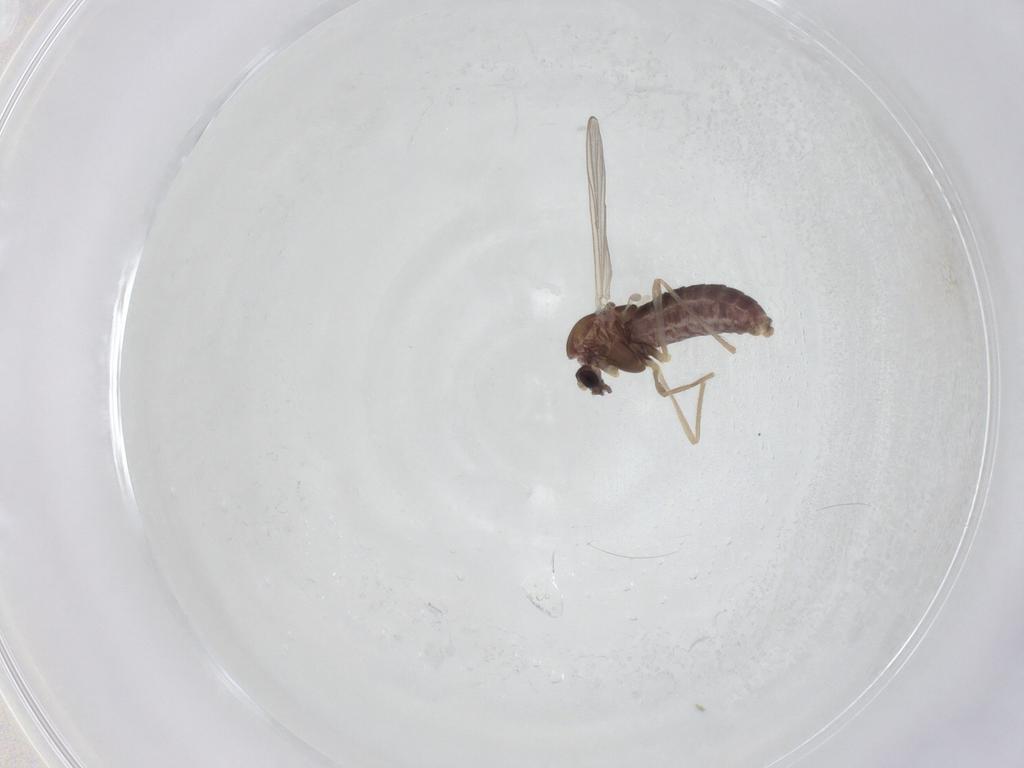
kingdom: Animalia
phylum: Arthropoda
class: Insecta
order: Diptera
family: Chironomidae
